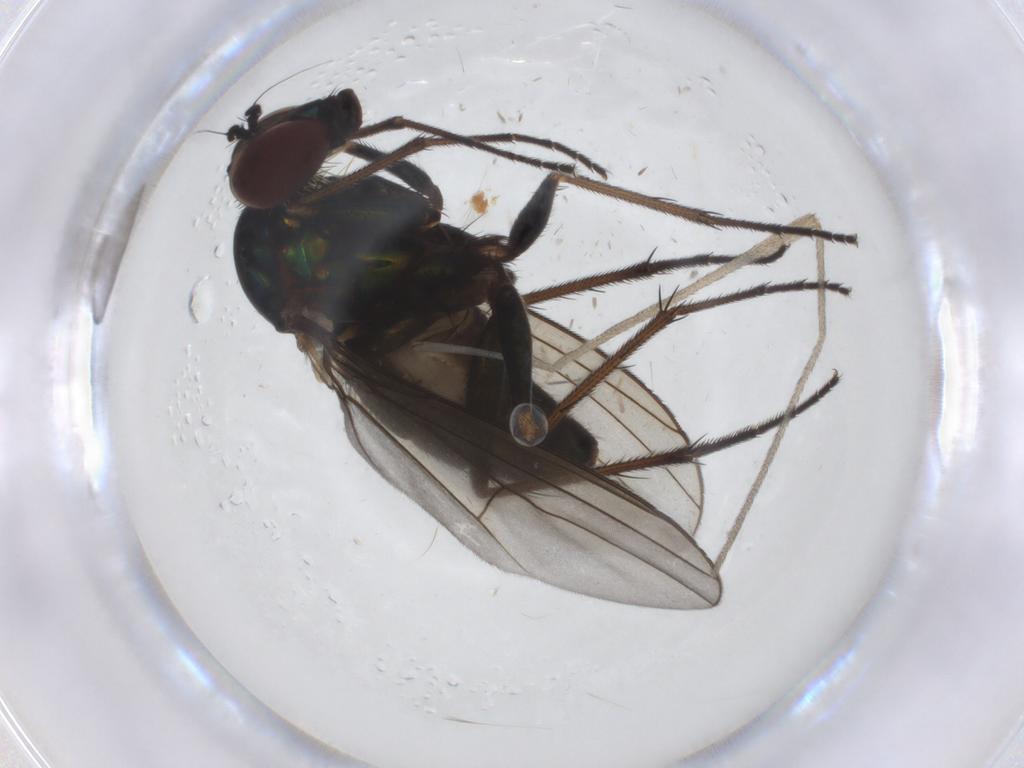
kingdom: Animalia
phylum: Arthropoda
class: Insecta
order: Diptera
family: Dolichopodidae
